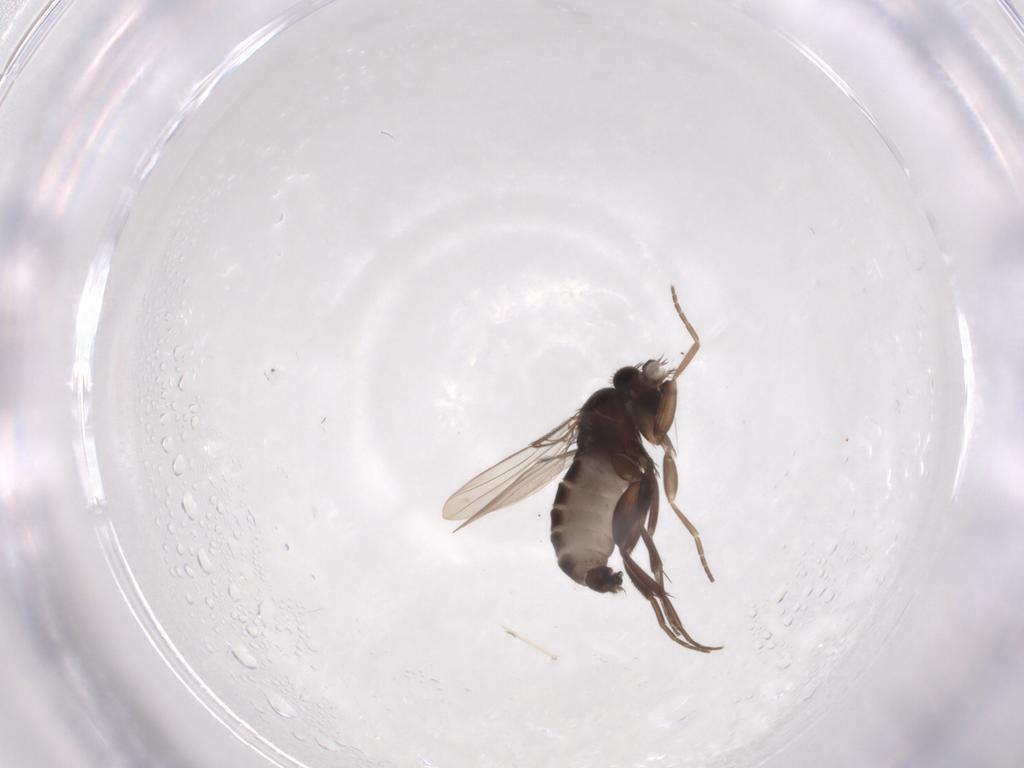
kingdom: Animalia
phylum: Arthropoda
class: Insecta
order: Diptera
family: Phoridae
